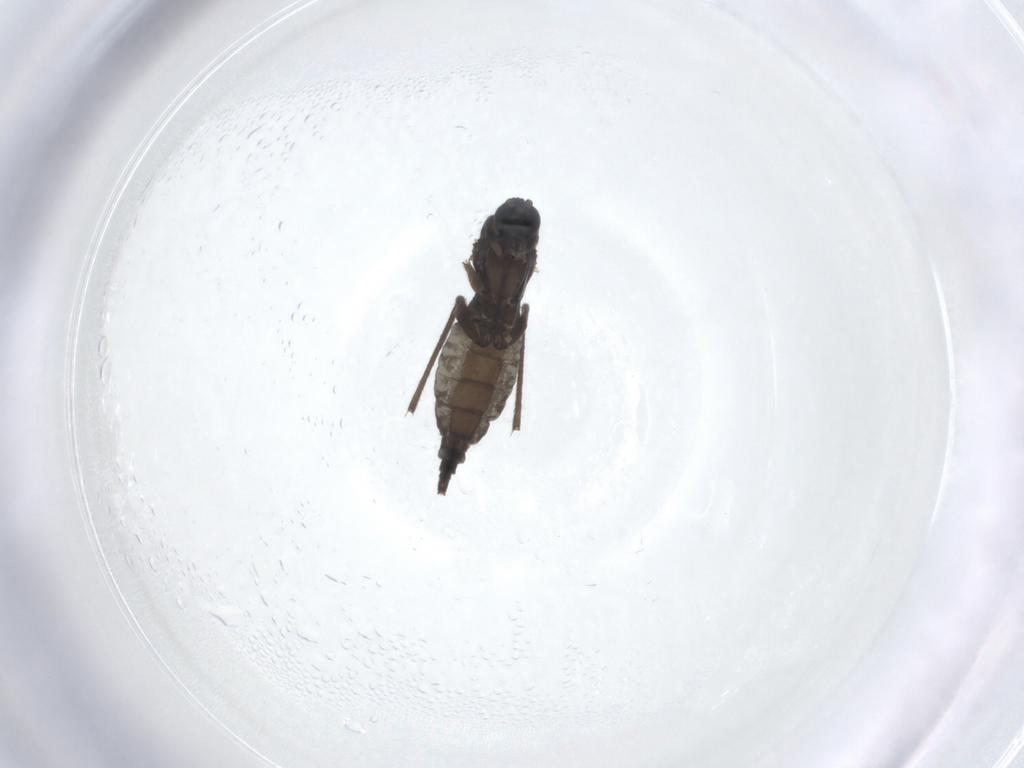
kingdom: Animalia
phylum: Arthropoda
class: Insecta
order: Diptera
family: Sciaridae
